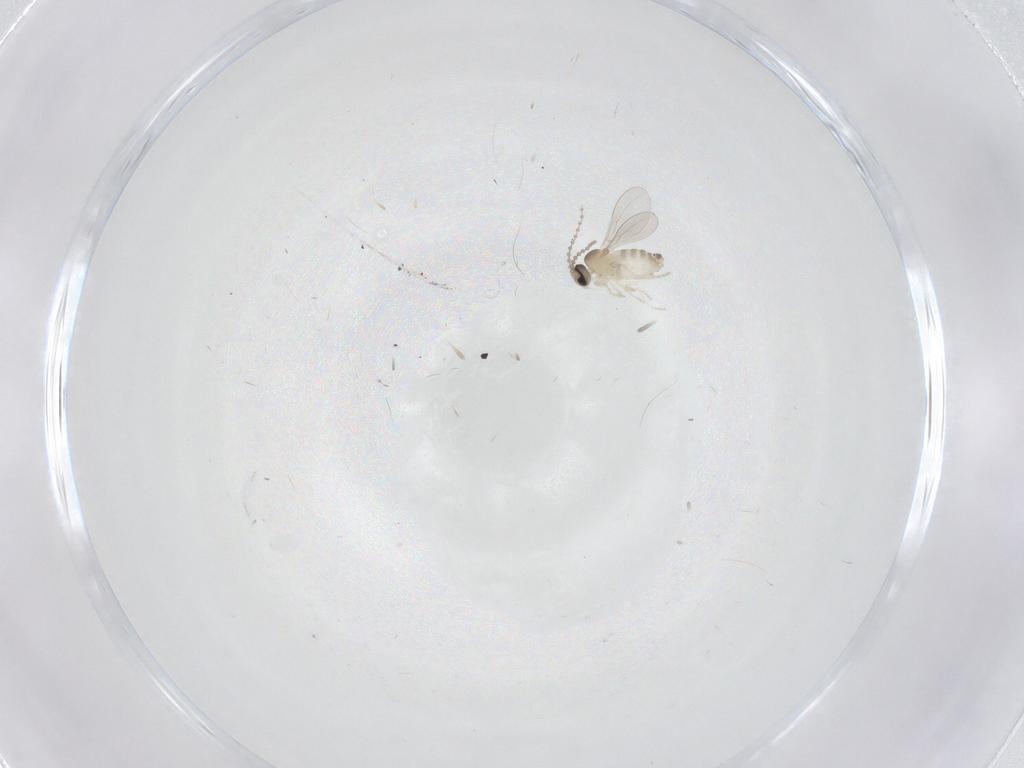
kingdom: Animalia
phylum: Arthropoda
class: Insecta
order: Diptera
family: Cecidomyiidae
